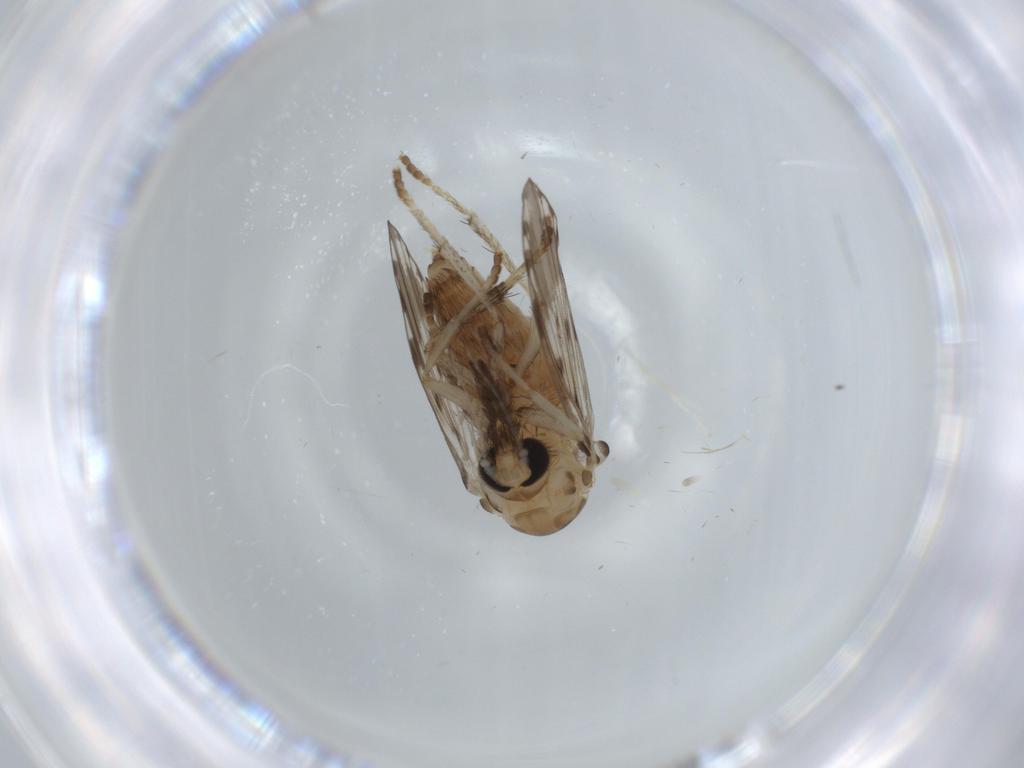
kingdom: Animalia
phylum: Arthropoda
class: Insecta
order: Diptera
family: Psychodidae
